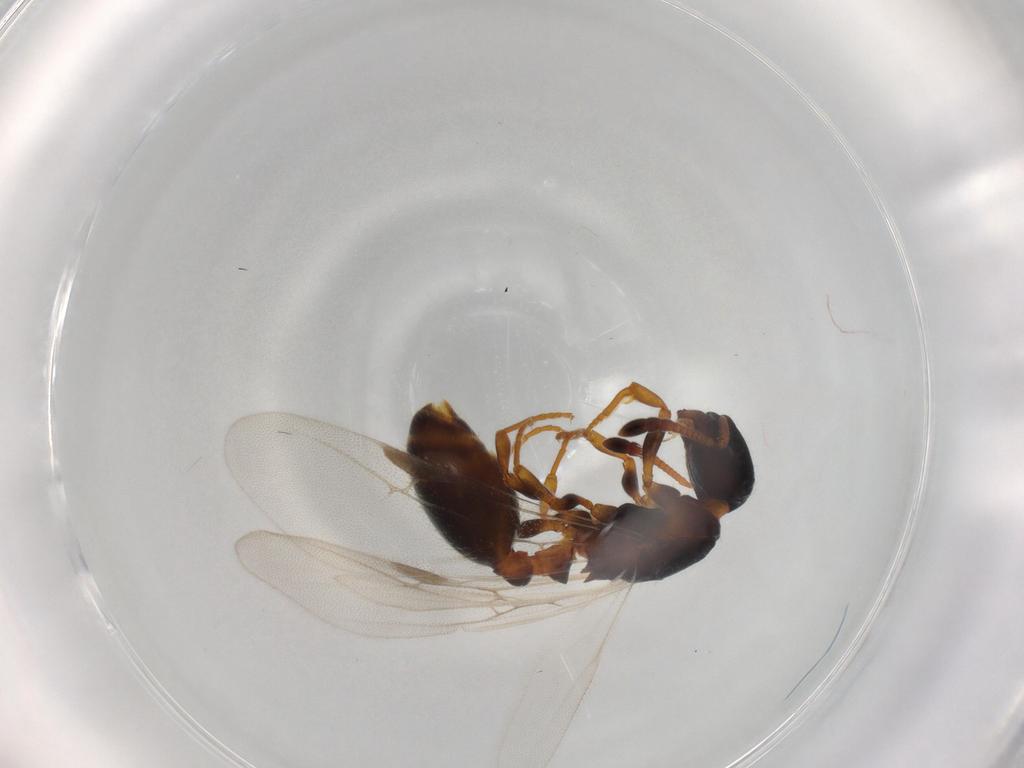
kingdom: Animalia
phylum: Arthropoda
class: Insecta
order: Hymenoptera
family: Formicidae
